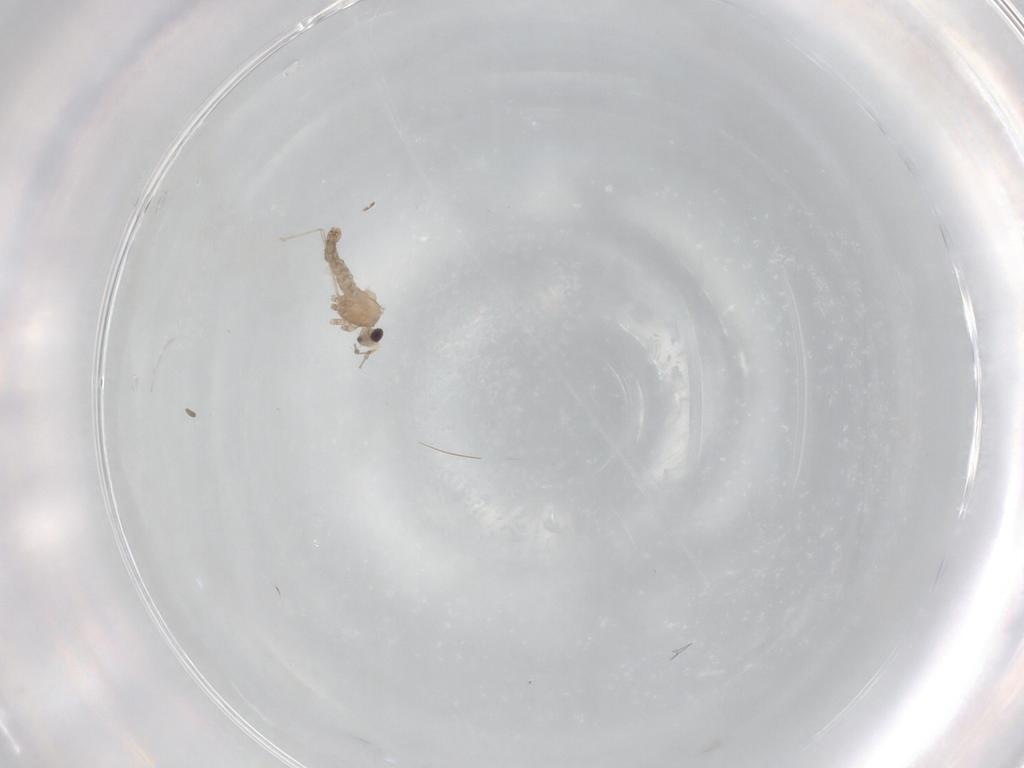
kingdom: Animalia
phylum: Arthropoda
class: Insecta
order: Diptera
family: Cecidomyiidae
